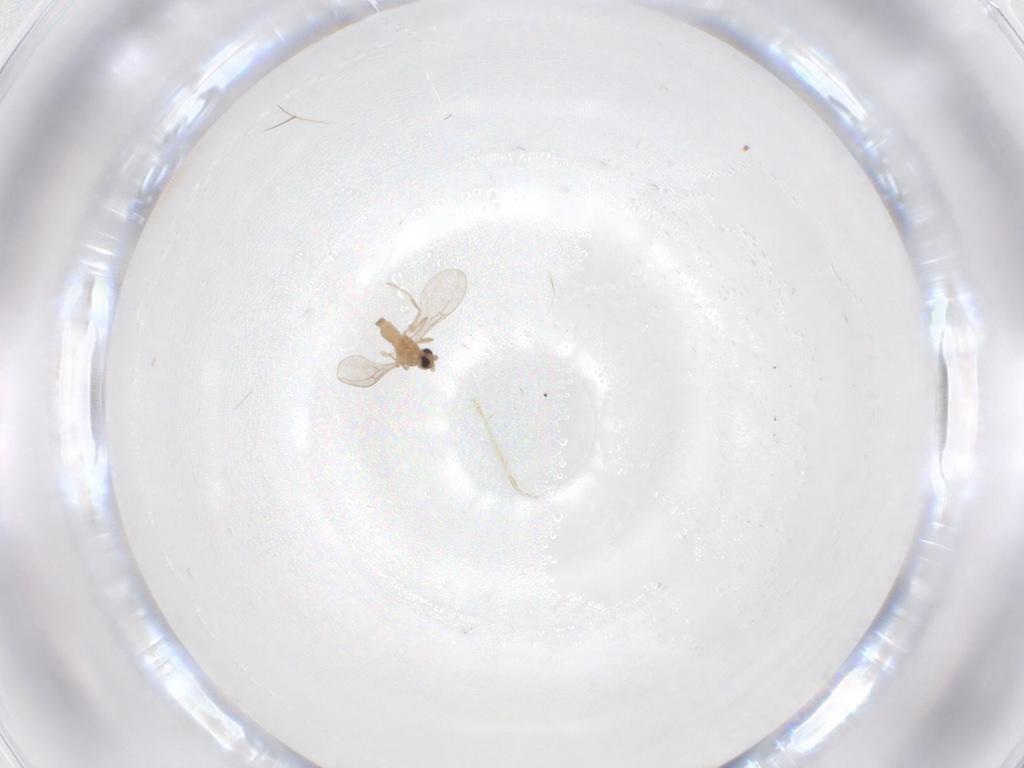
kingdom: Animalia
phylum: Arthropoda
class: Insecta
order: Diptera
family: Cecidomyiidae
